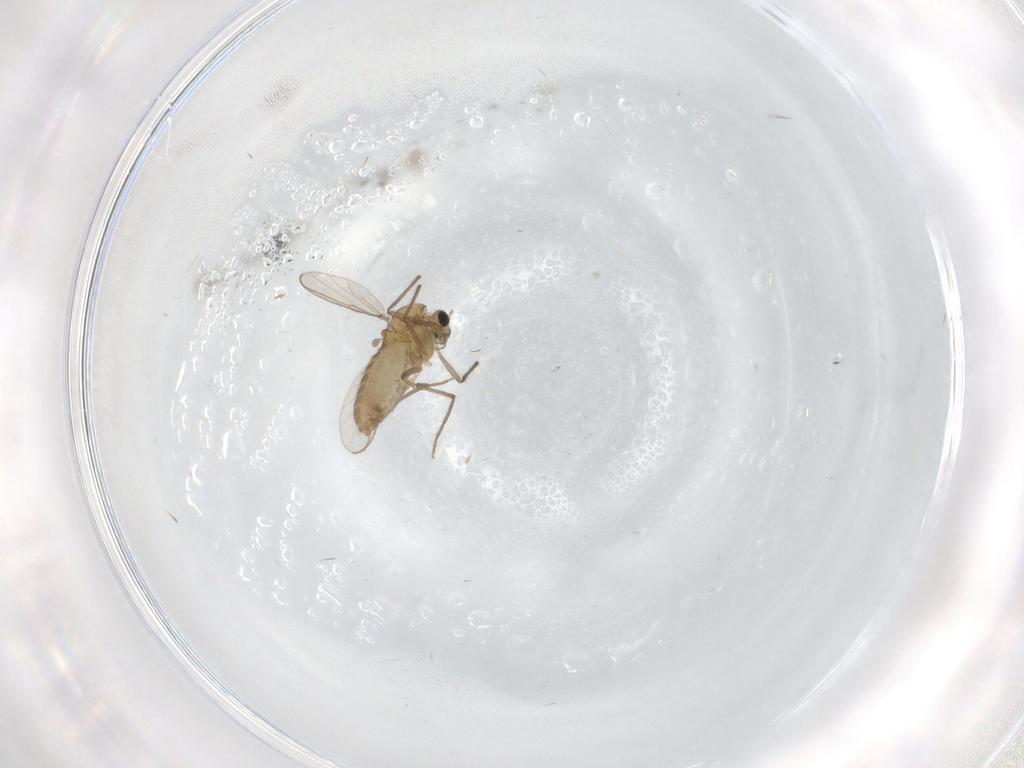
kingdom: Animalia
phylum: Arthropoda
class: Insecta
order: Diptera
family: Chironomidae
